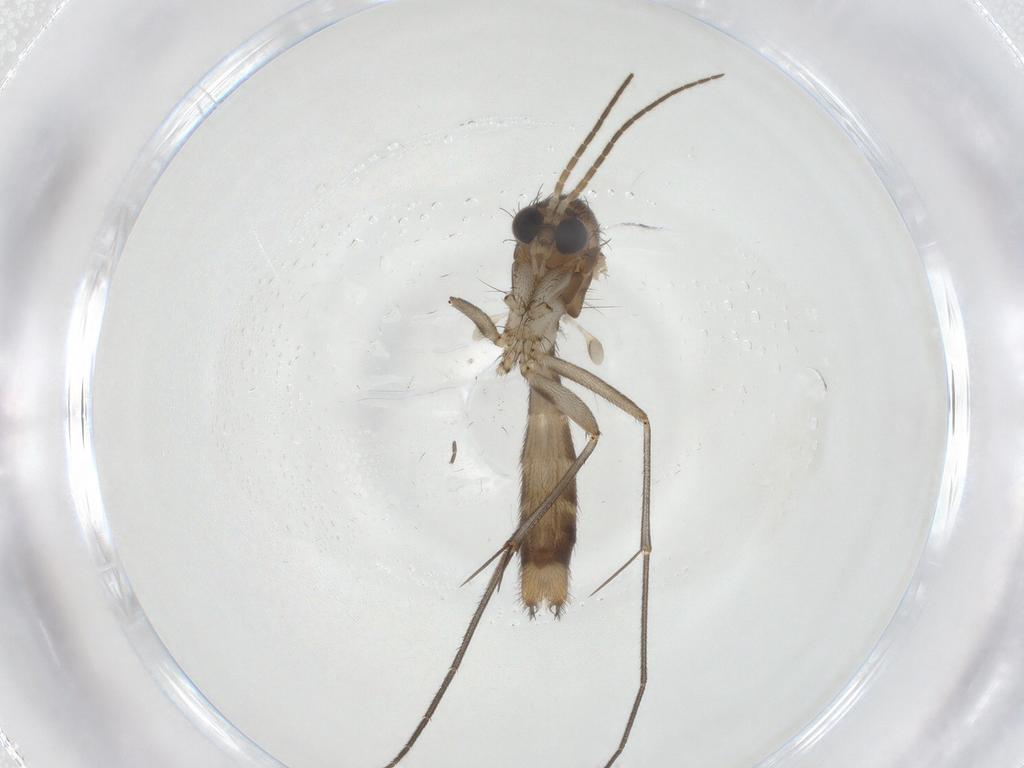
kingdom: Animalia
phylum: Arthropoda
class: Insecta
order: Diptera
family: Mycetophilidae
